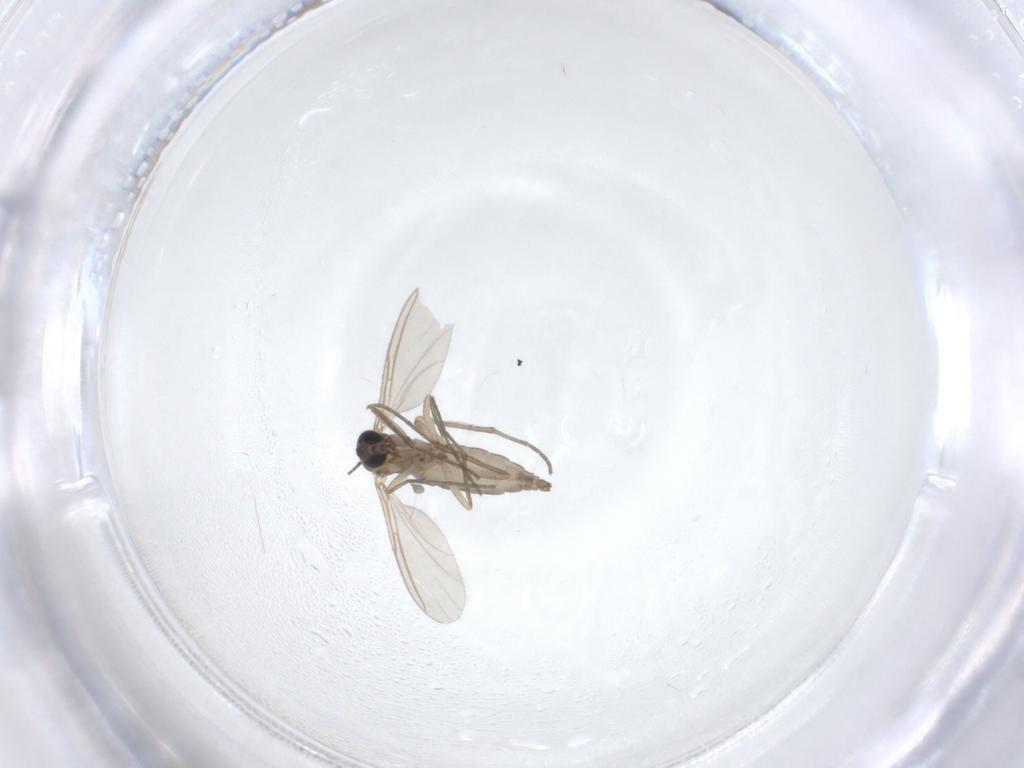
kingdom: Animalia
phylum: Arthropoda
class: Insecta
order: Diptera
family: Sciaridae
